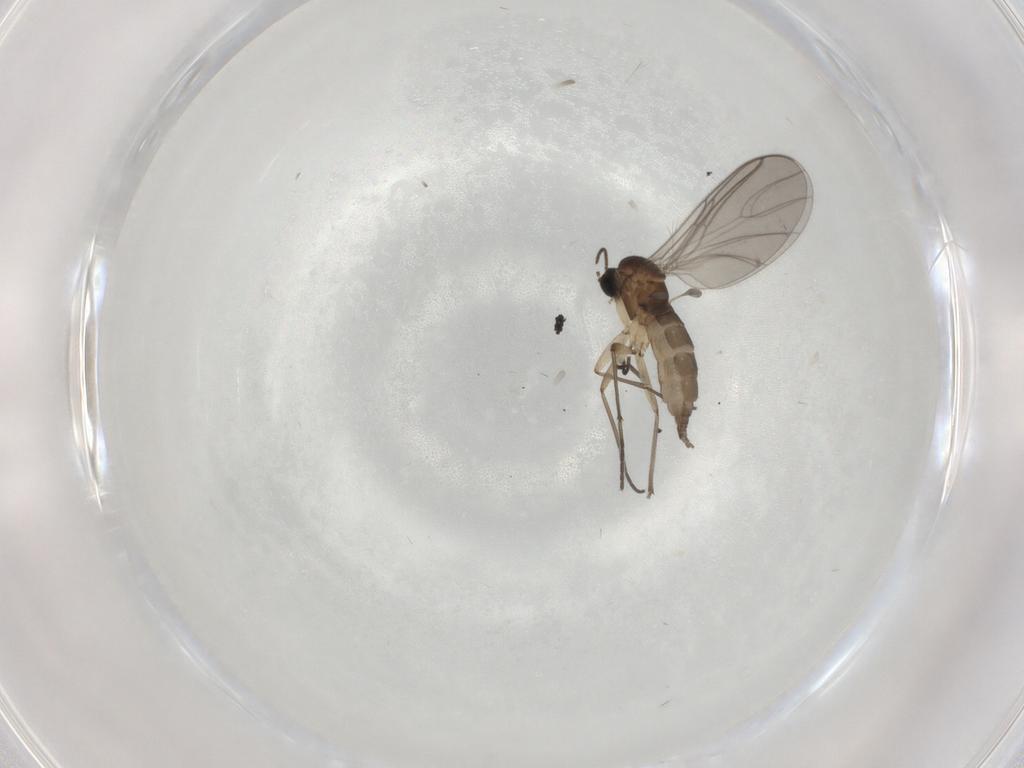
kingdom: Animalia
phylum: Arthropoda
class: Insecta
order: Diptera
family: Sciaridae
